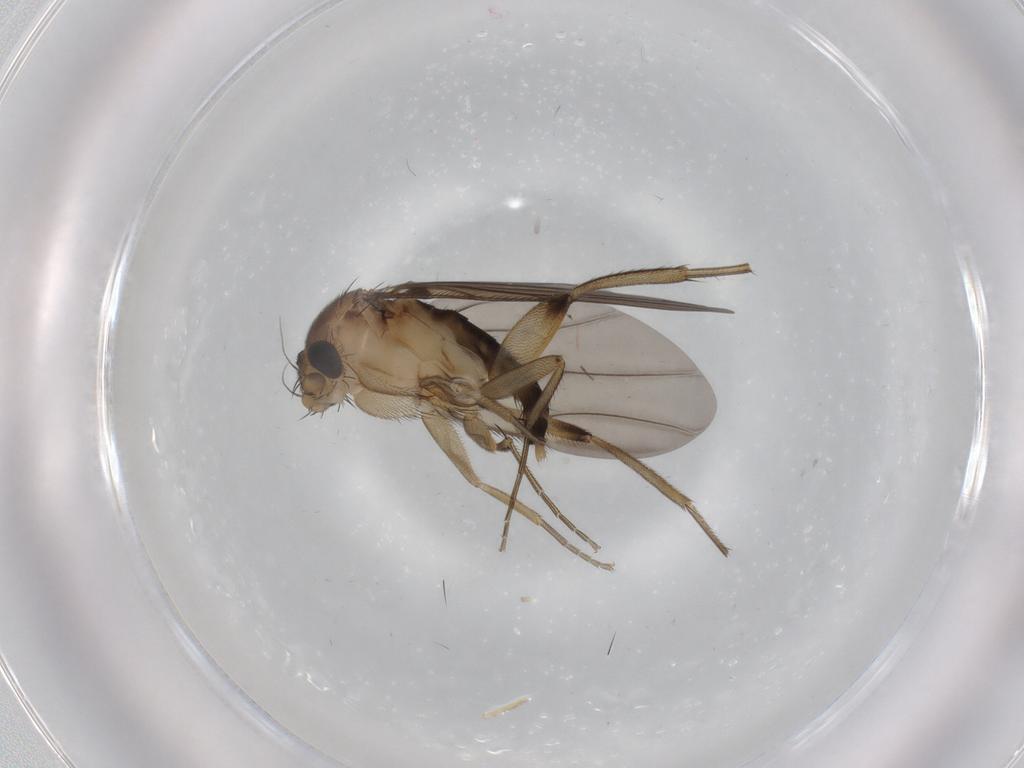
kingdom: Animalia
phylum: Arthropoda
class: Insecta
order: Diptera
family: Phoridae
